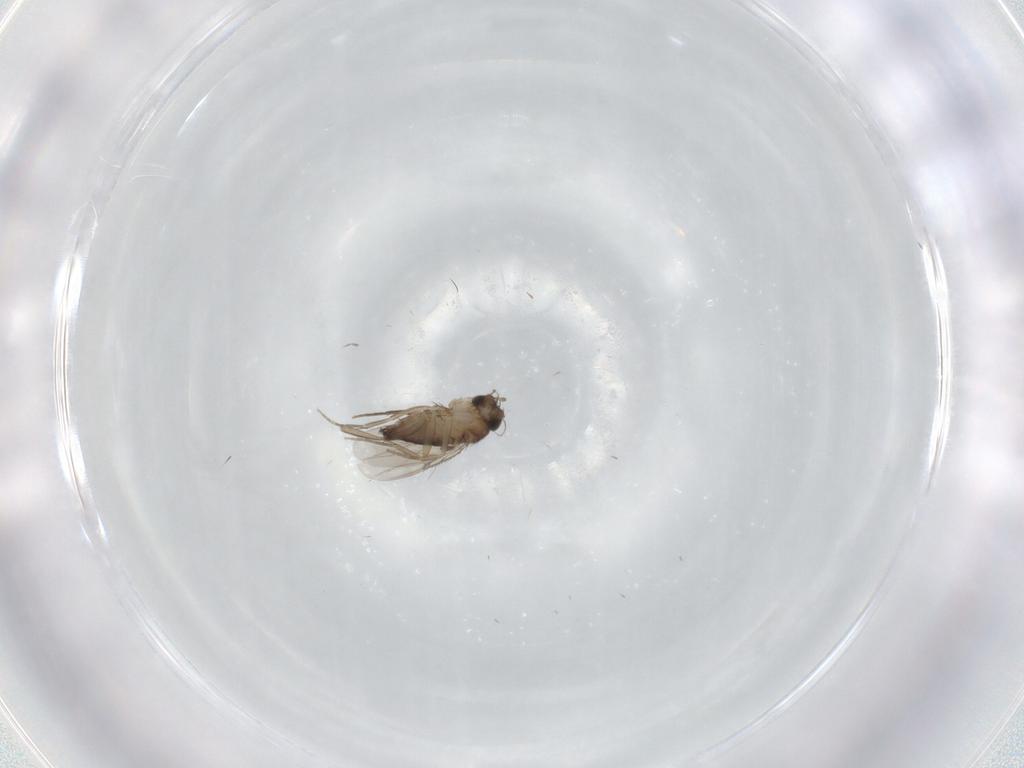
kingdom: Animalia
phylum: Arthropoda
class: Insecta
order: Diptera
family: Phoridae
